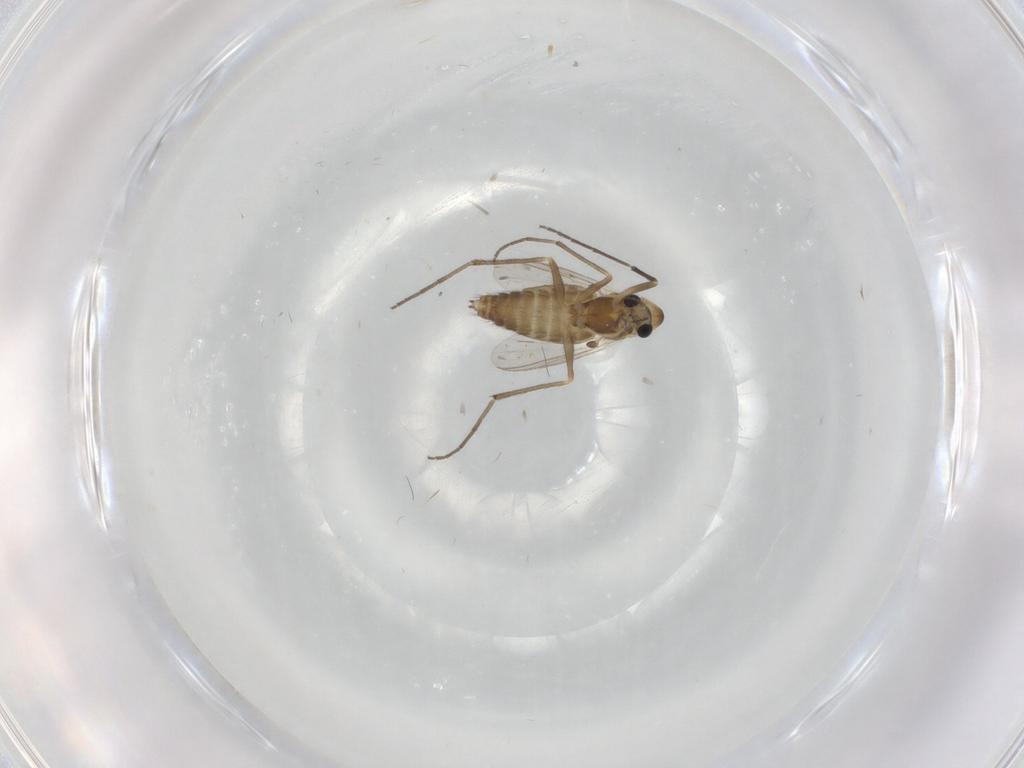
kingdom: Animalia
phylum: Arthropoda
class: Insecta
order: Diptera
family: Chironomidae
